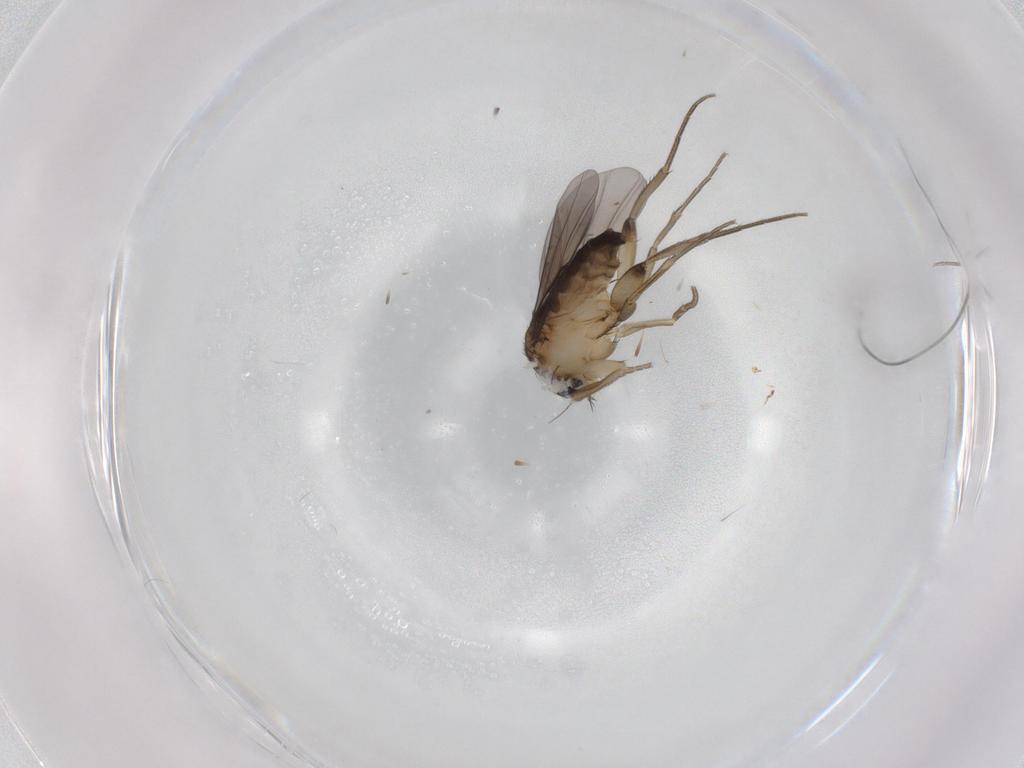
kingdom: Animalia
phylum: Arthropoda
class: Insecta
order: Diptera
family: Phoridae
